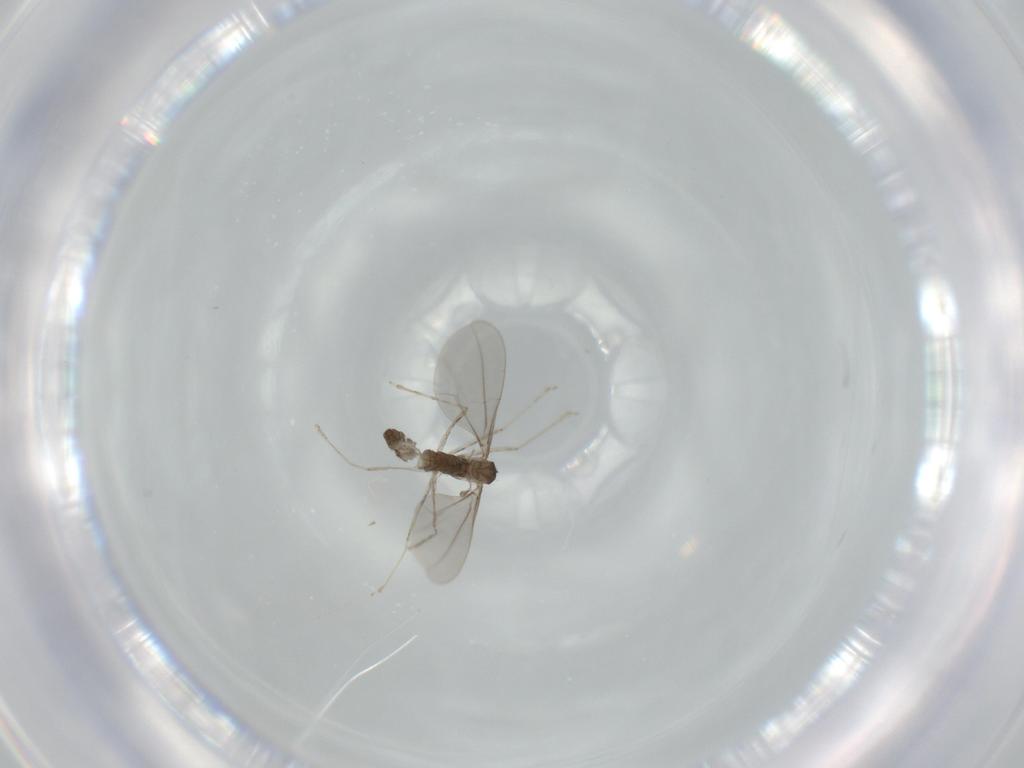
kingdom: Animalia
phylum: Arthropoda
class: Insecta
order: Diptera
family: Cecidomyiidae
